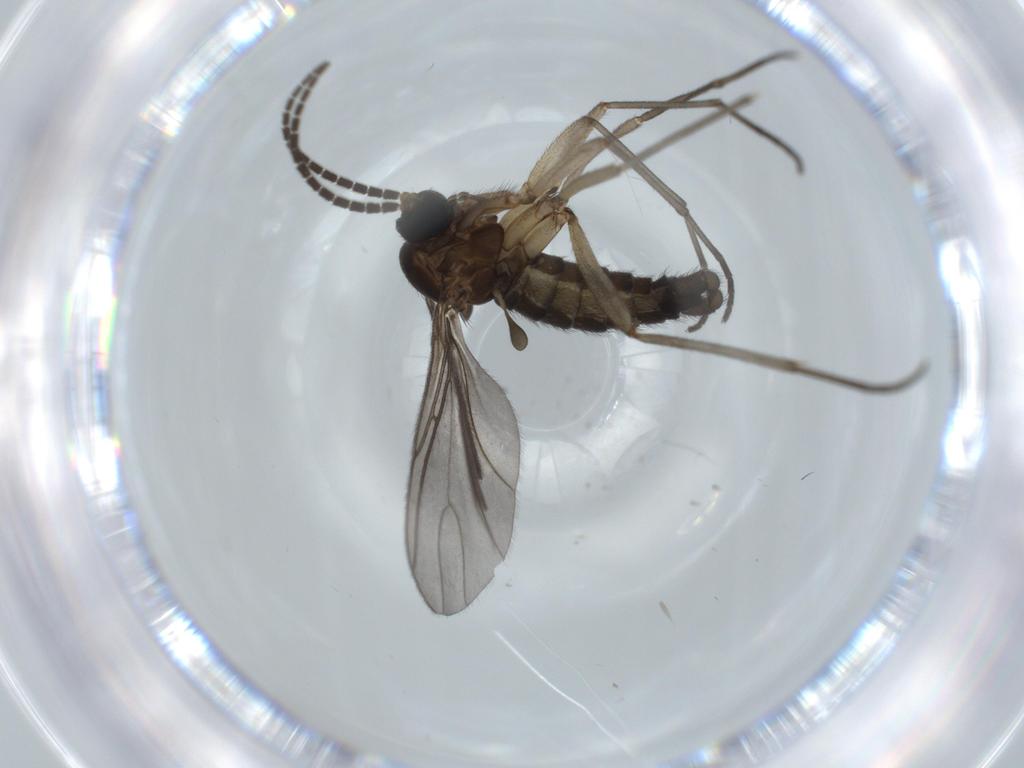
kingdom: Animalia
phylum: Arthropoda
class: Insecta
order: Diptera
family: Sciaridae
